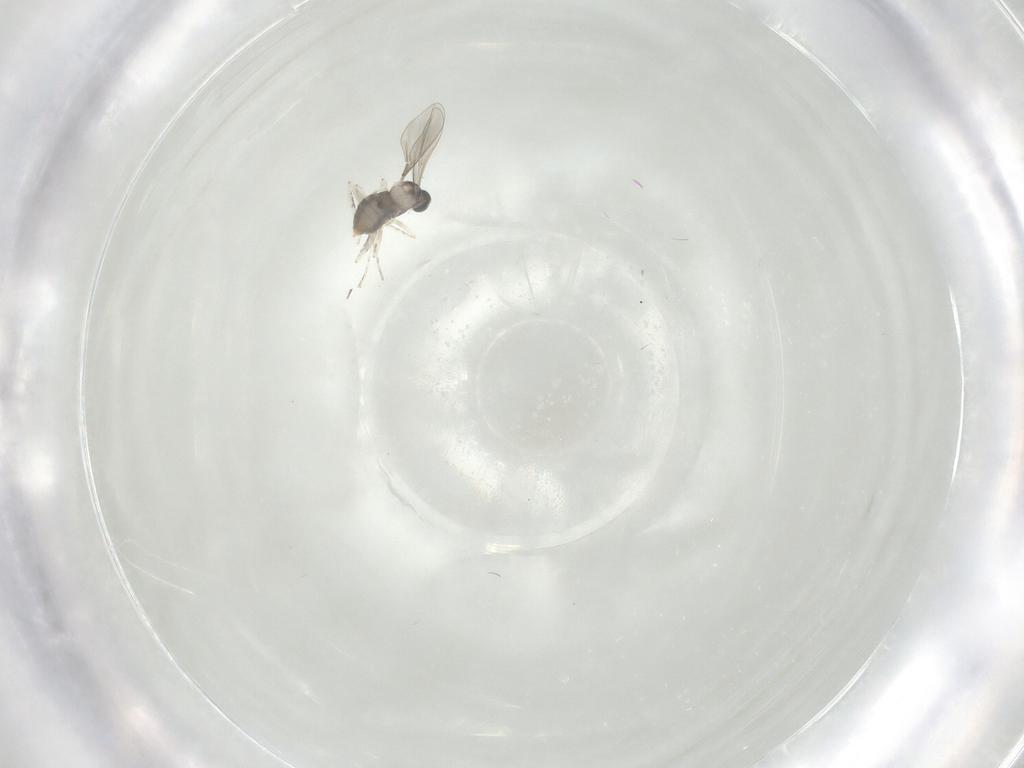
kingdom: Animalia
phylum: Arthropoda
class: Insecta
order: Diptera
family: Sciaridae
